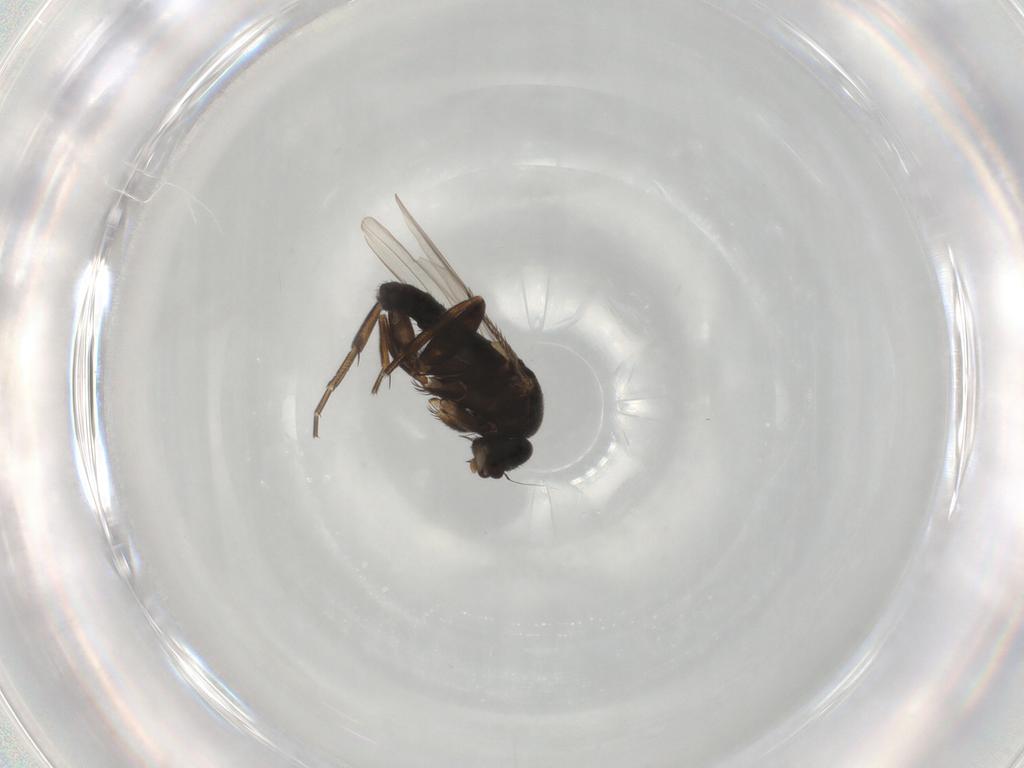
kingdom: Animalia
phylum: Arthropoda
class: Insecta
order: Diptera
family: Phoridae
